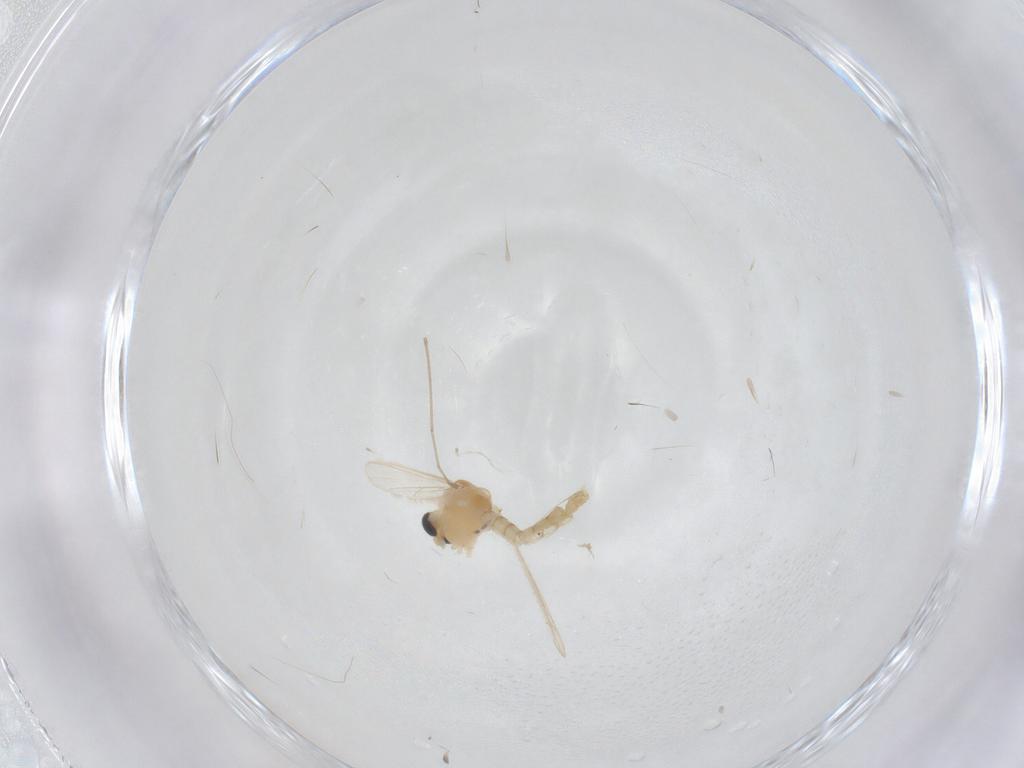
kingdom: Animalia
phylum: Arthropoda
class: Insecta
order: Diptera
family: Cecidomyiidae
